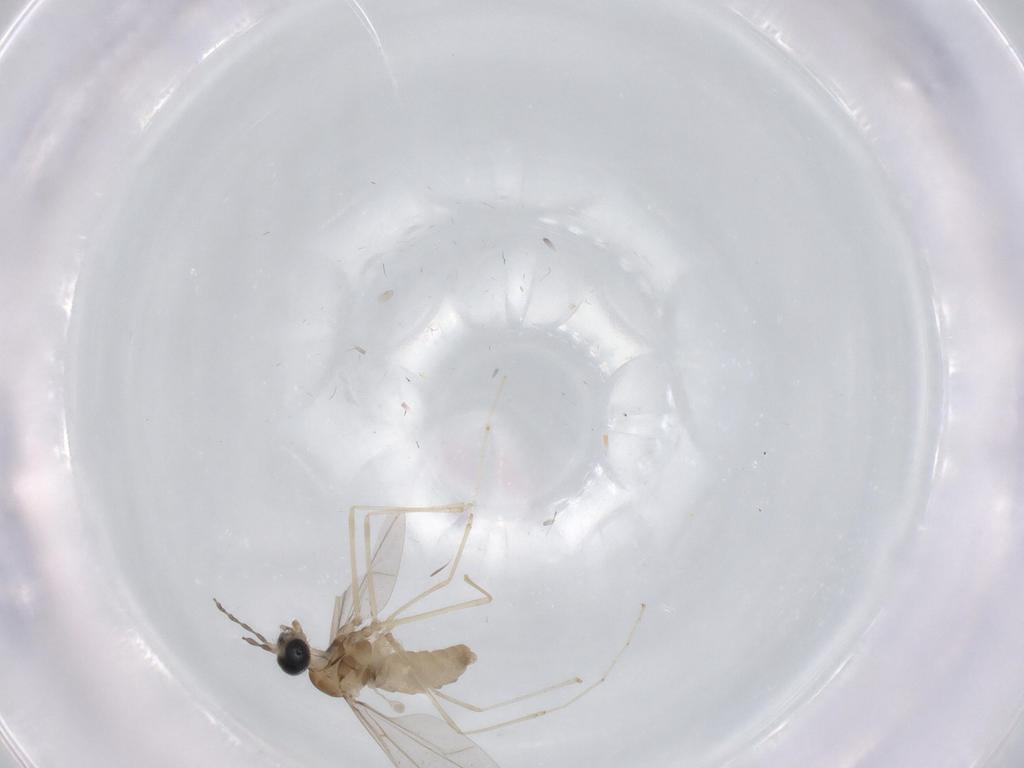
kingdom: Animalia
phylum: Arthropoda
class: Insecta
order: Diptera
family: Cecidomyiidae
